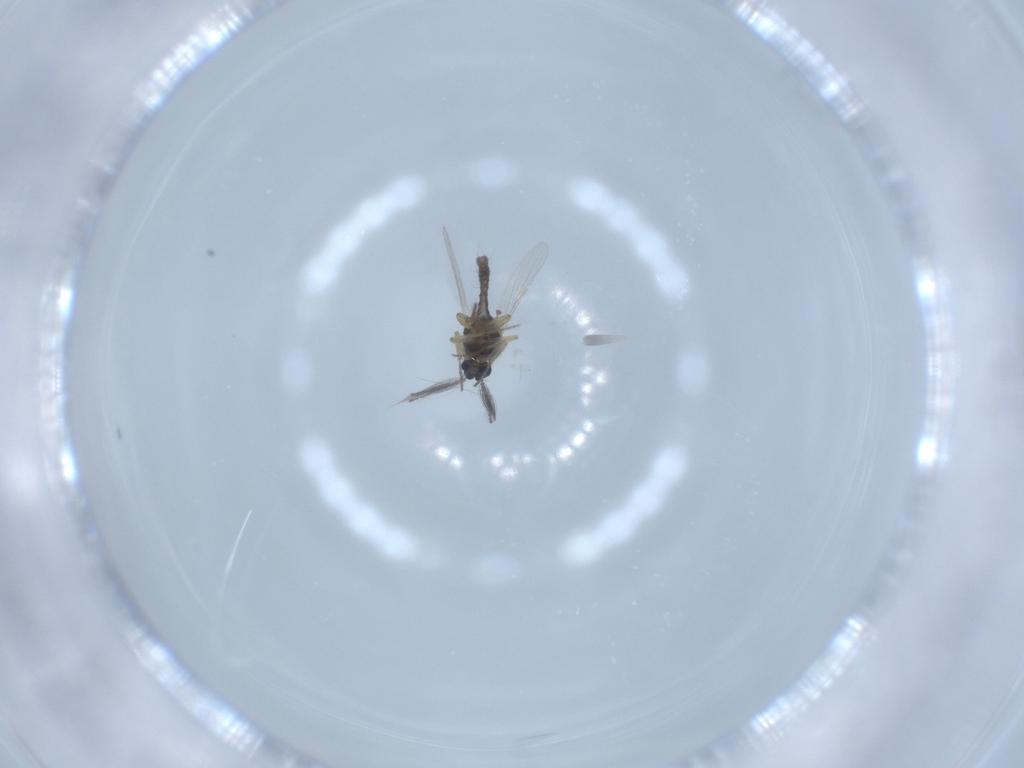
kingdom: Animalia
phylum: Arthropoda
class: Insecta
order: Diptera
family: Ceratopogonidae
